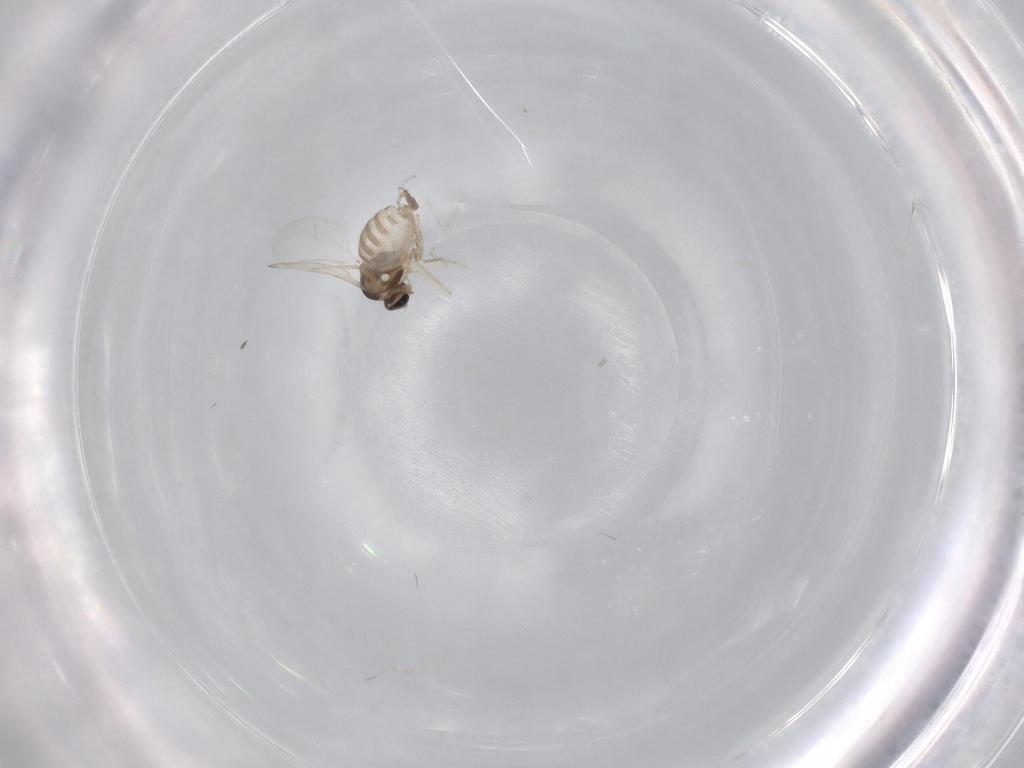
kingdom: Animalia
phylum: Arthropoda
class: Insecta
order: Diptera
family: Cecidomyiidae
